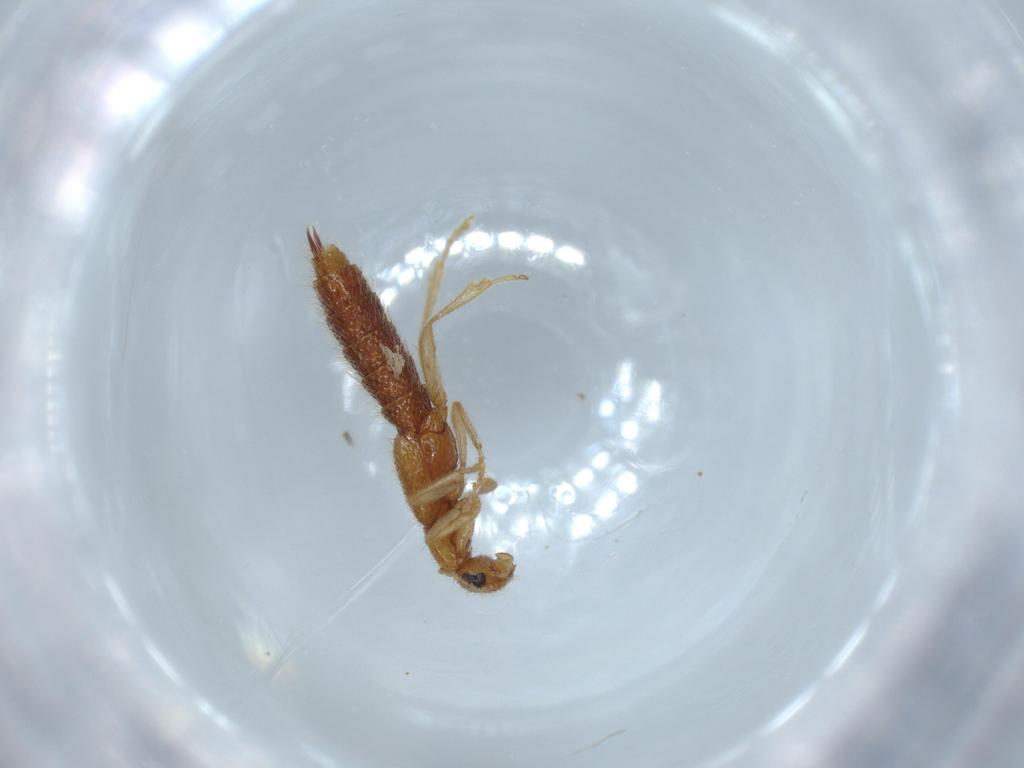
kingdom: Animalia
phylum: Arthropoda
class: Insecta
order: Coleoptera
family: Staphylinidae
